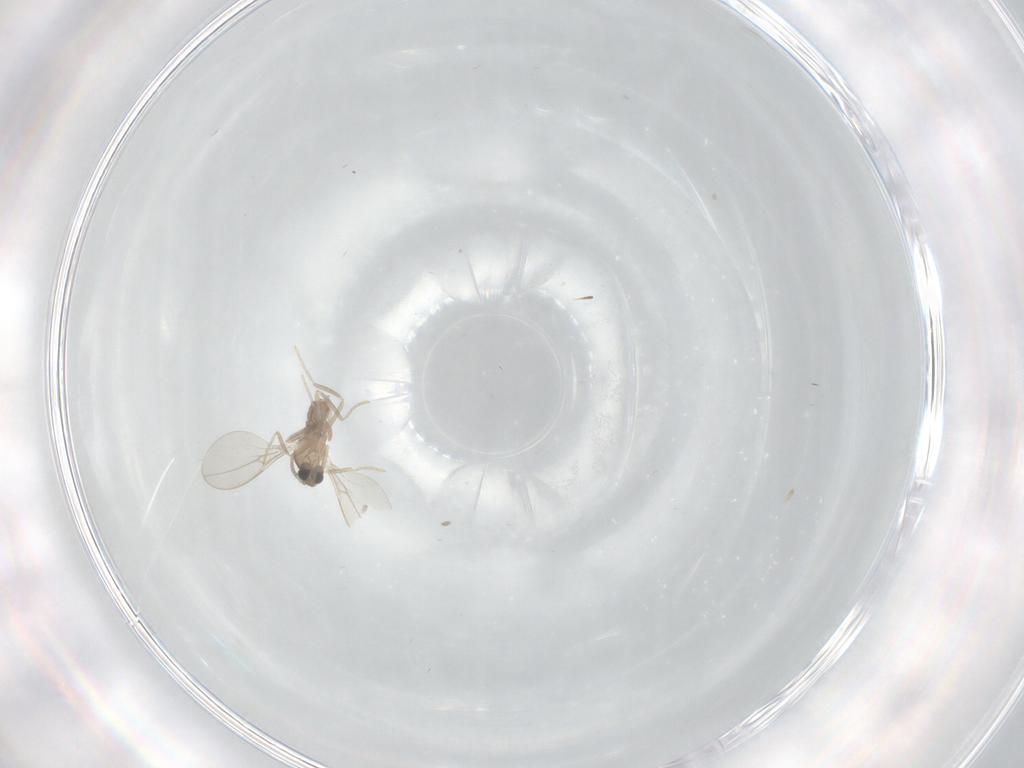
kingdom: Animalia
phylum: Arthropoda
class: Insecta
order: Diptera
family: Cecidomyiidae
